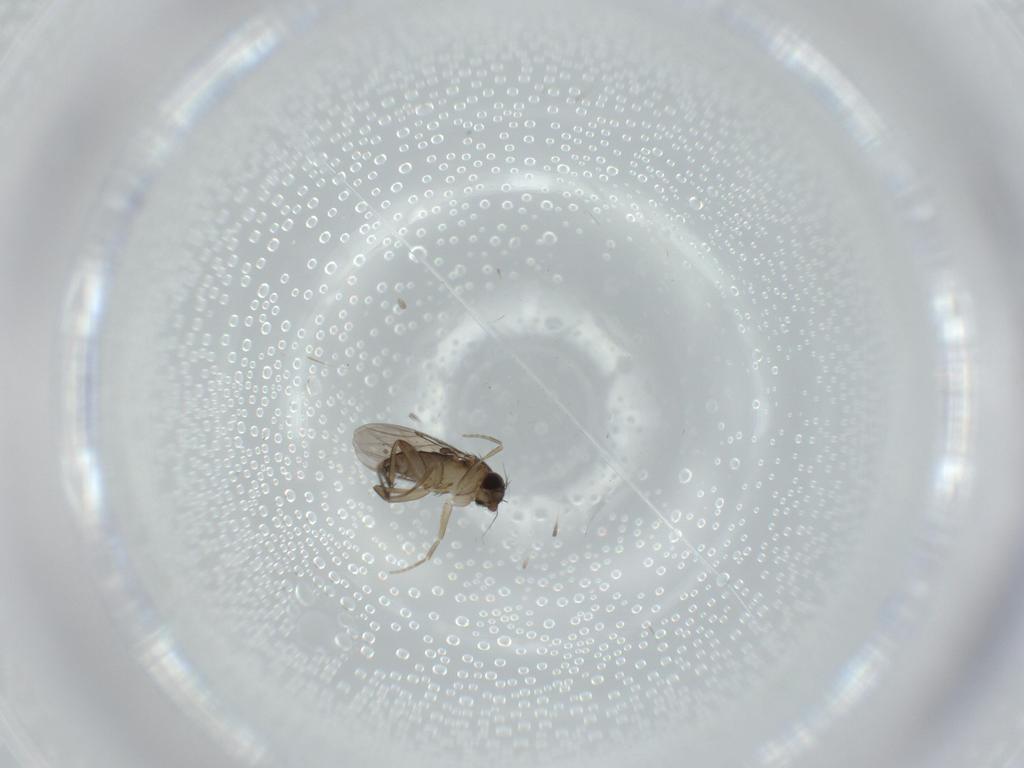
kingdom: Animalia
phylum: Arthropoda
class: Insecta
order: Diptera
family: Phoridae
